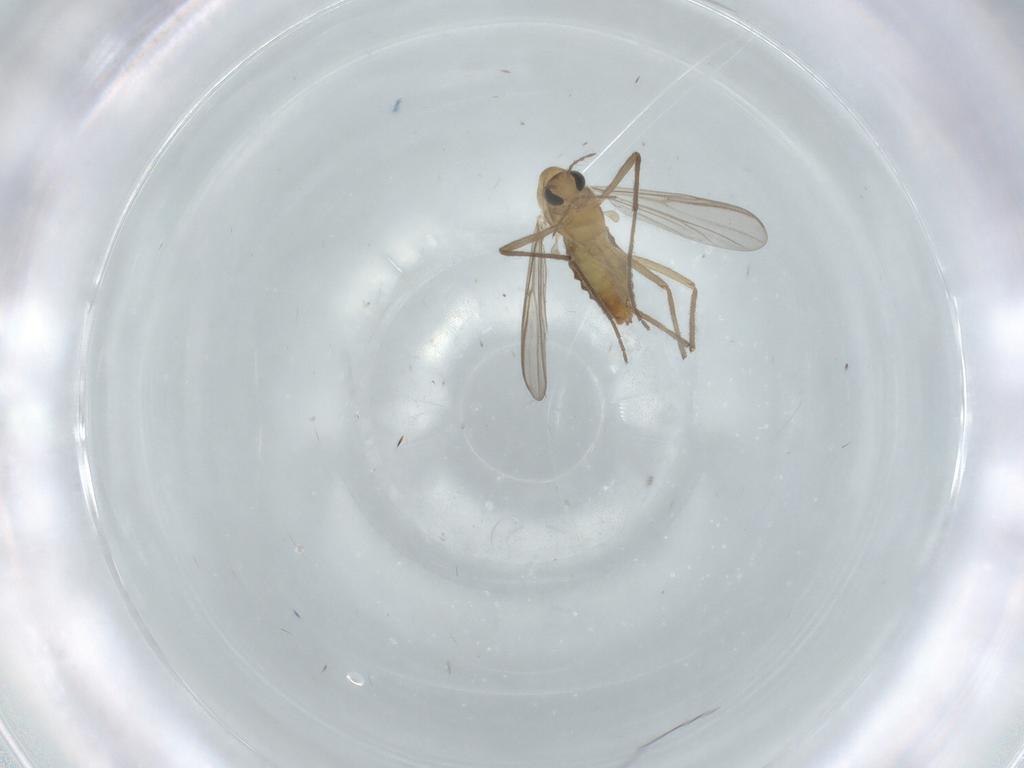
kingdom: Animalia
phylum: Arthropoda
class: Insecta
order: Diptera
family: Chironomidae
